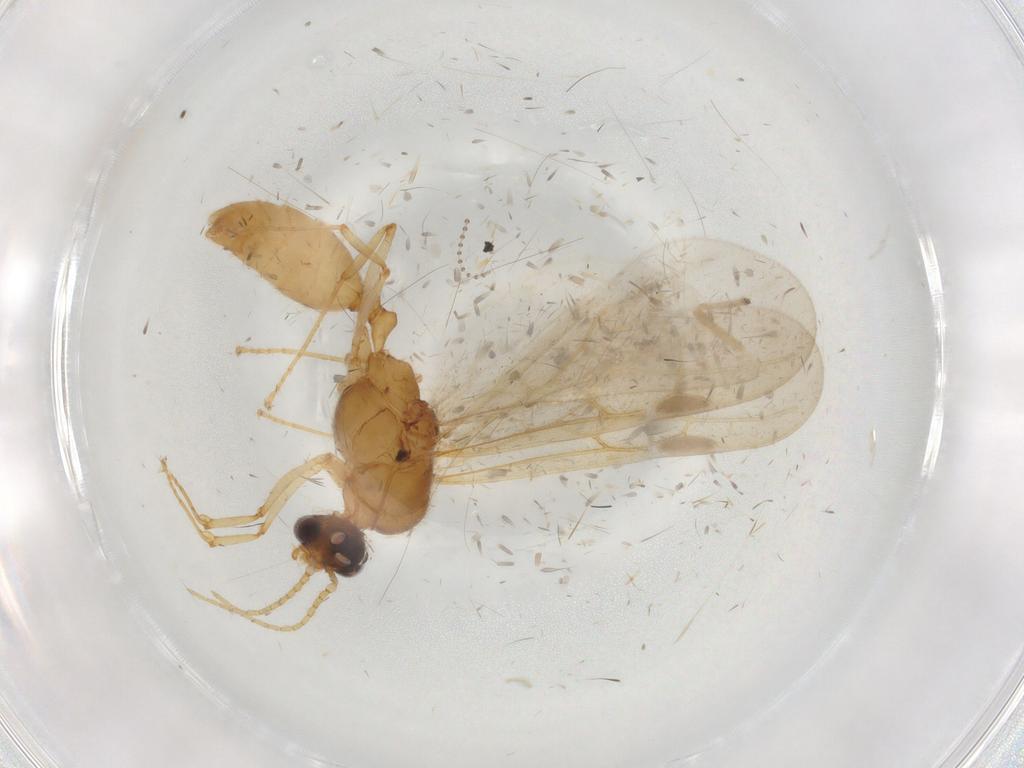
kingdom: Animalia
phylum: Arthropoda
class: Insecta
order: Hymenoptera
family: Formicidae
